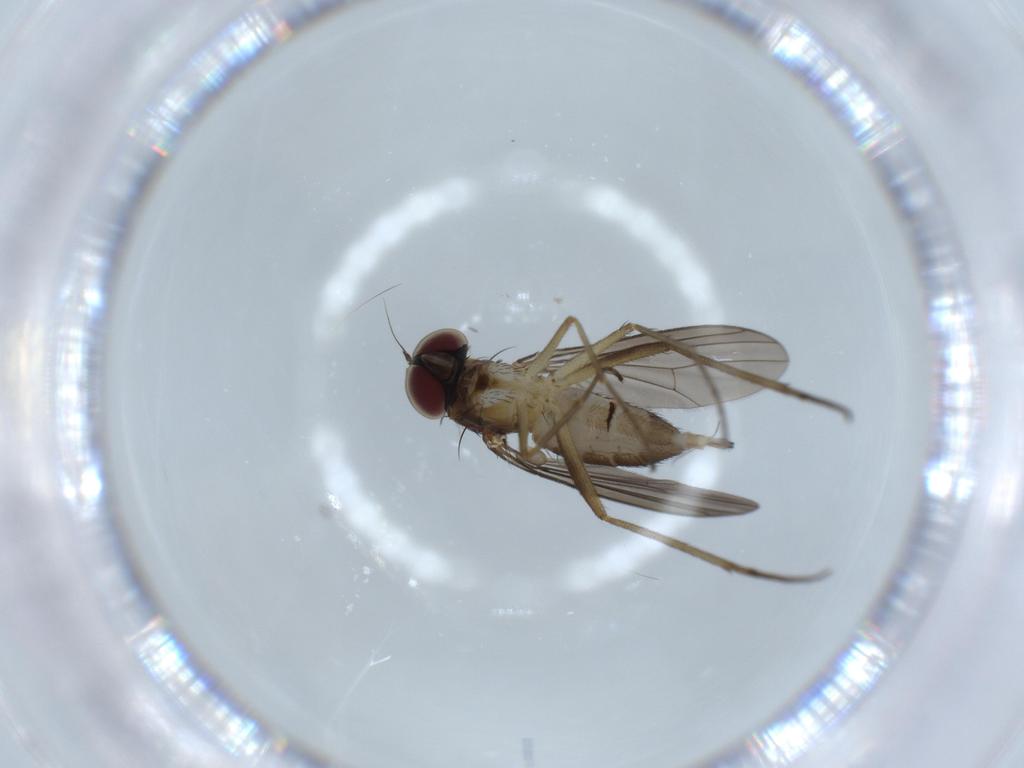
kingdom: Animalia
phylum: Arthropoda
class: Insecta
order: Diptera
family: Dolichopodidae
